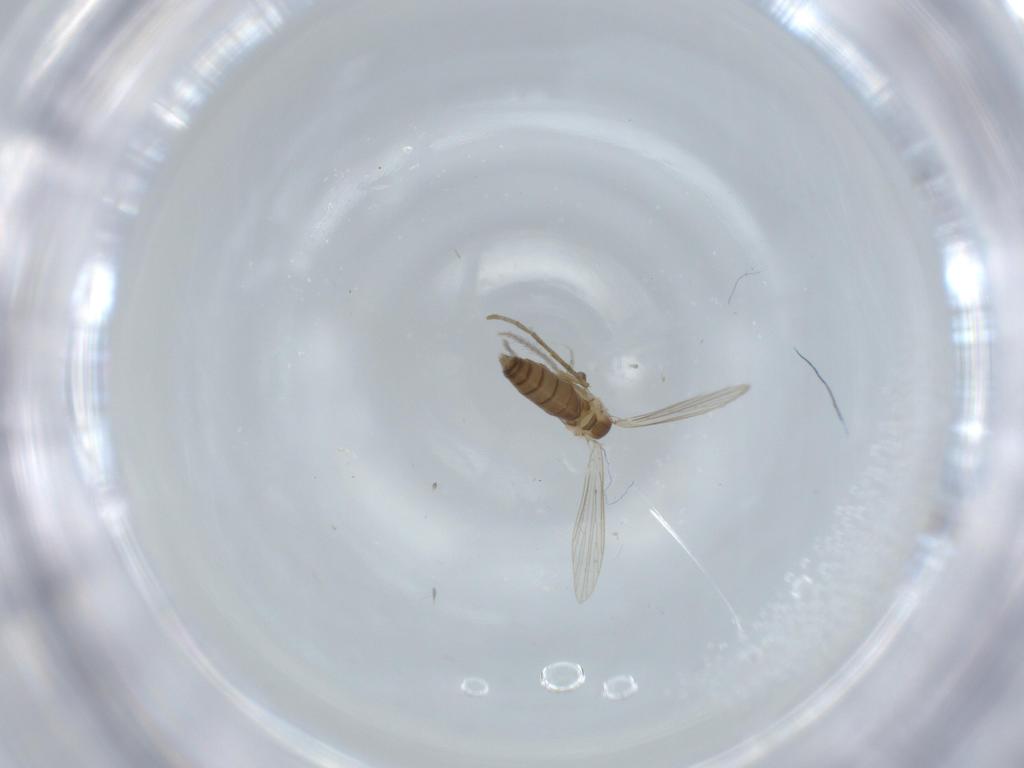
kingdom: Animalia
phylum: Arthropoda
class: Insecta
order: Diptera
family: Psychodidae
